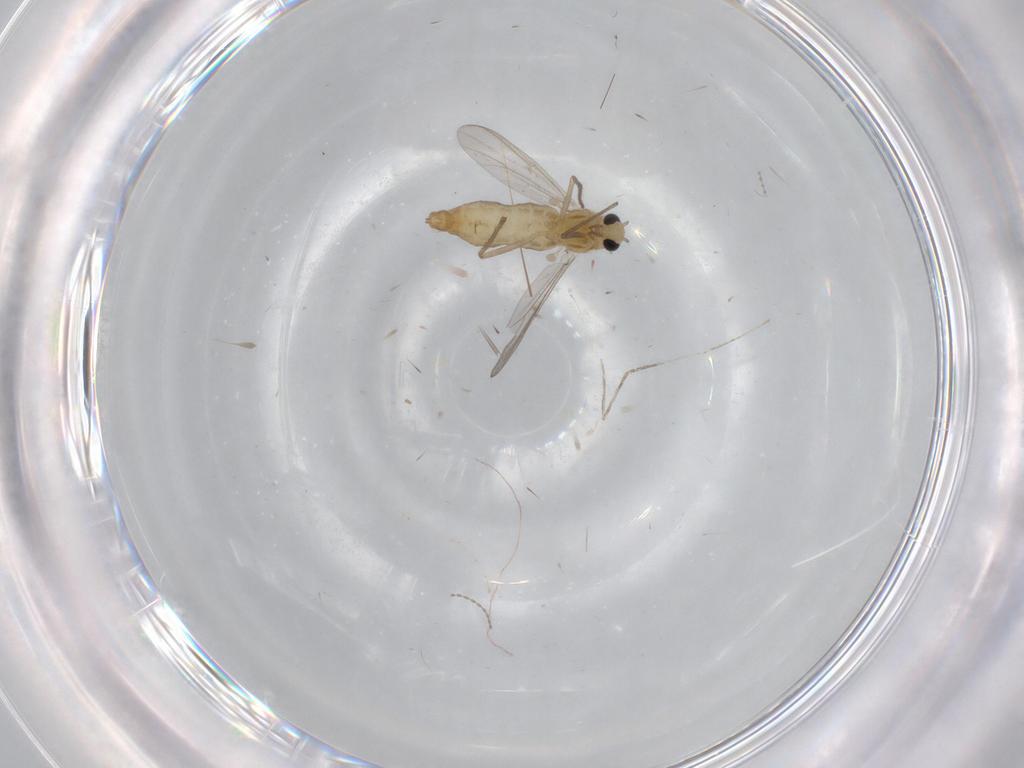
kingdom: Animalia
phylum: Arthropoda
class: Insecta
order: Diptera
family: Chironomidae
